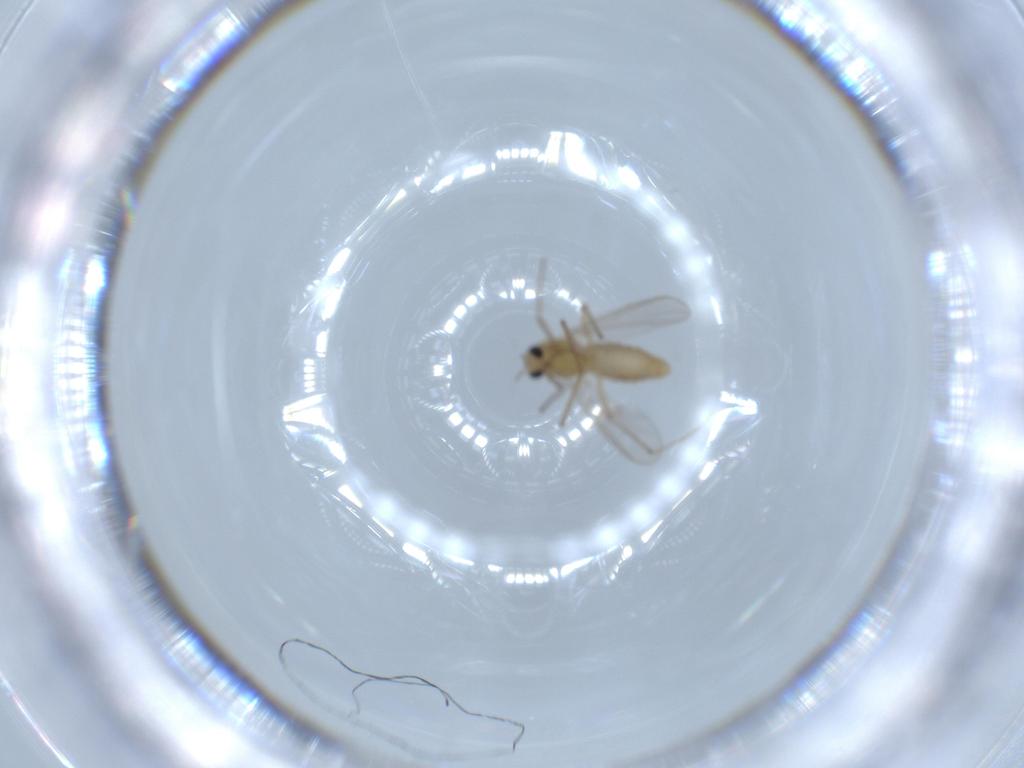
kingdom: Animalia
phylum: Arthropoda
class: Insecta
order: Diptera
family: Chironomidae
